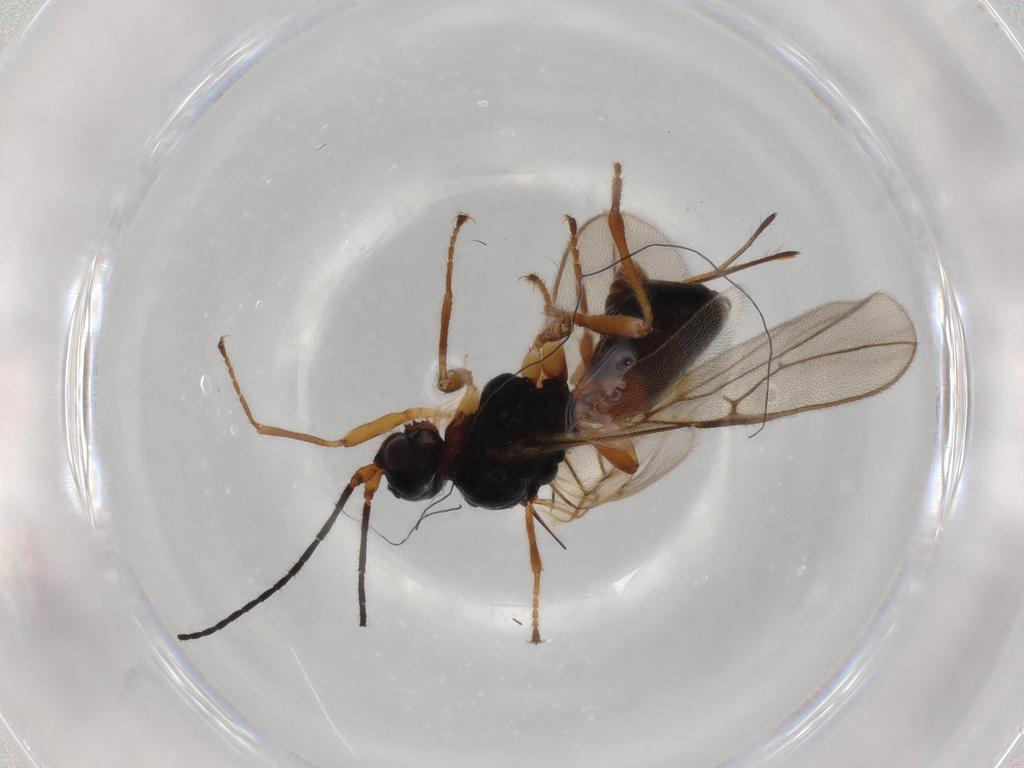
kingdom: Animalia
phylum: Arthropoda
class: Insecta
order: Hymenoptera
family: Braconidae
